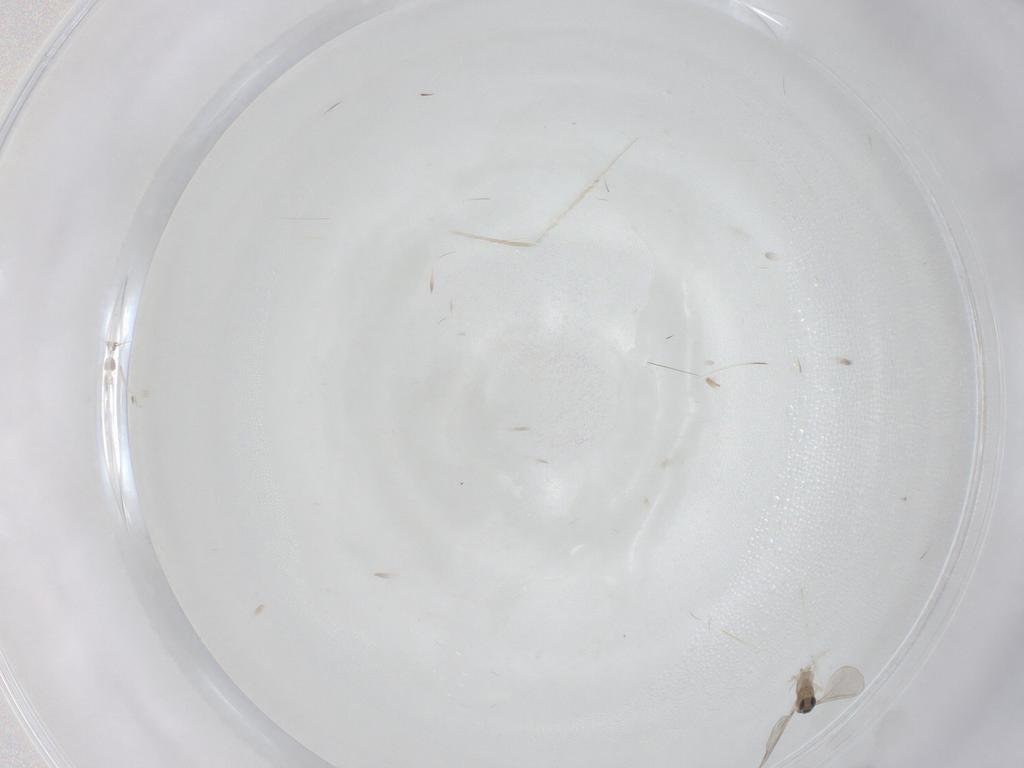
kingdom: Animalia
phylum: Arthropoda
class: Insecta
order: Diptera
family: Cecidomyiidae
